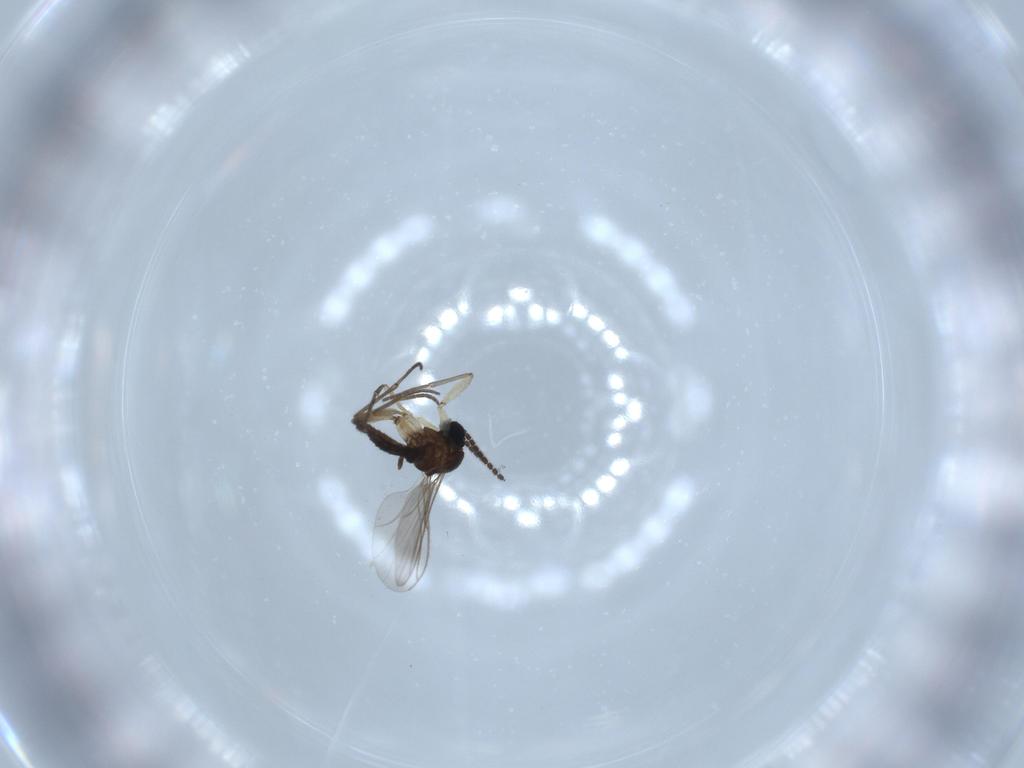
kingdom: Animalia
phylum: Arthropoda
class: Insecta
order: Diptera
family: Sciaridae
